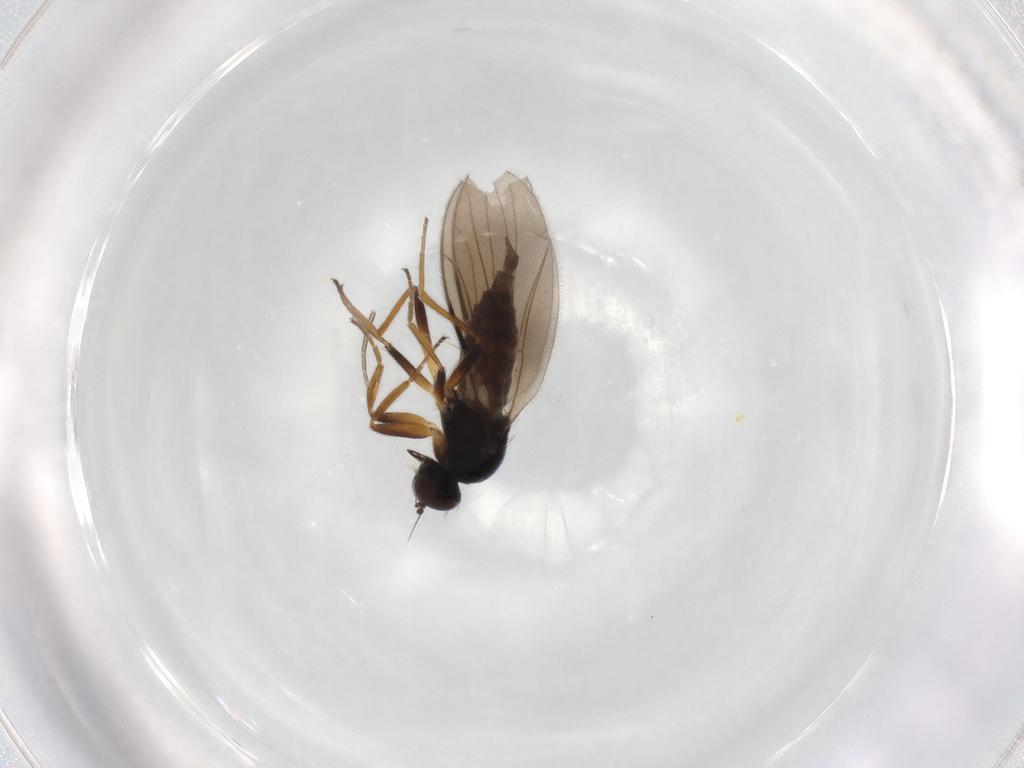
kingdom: Animalia
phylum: Arthropoda
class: Insecta
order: Diptera
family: Hybotidae
